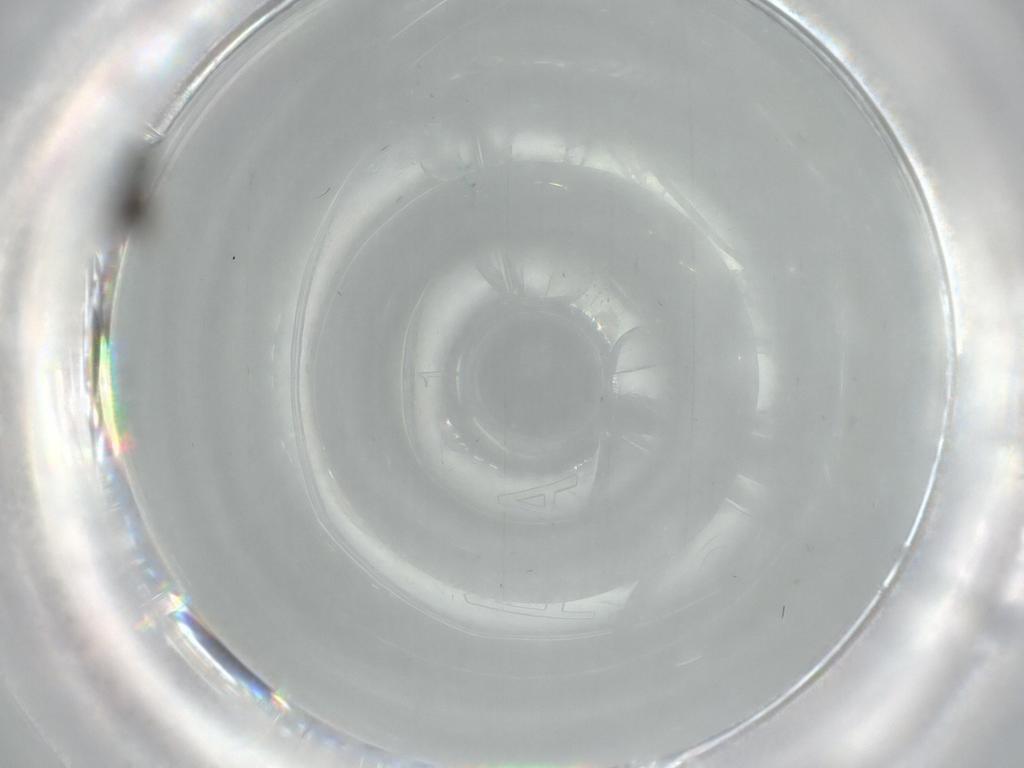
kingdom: Animalia
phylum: Arthropoda
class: Insecta
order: Diptera
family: Cecidomyiidae
